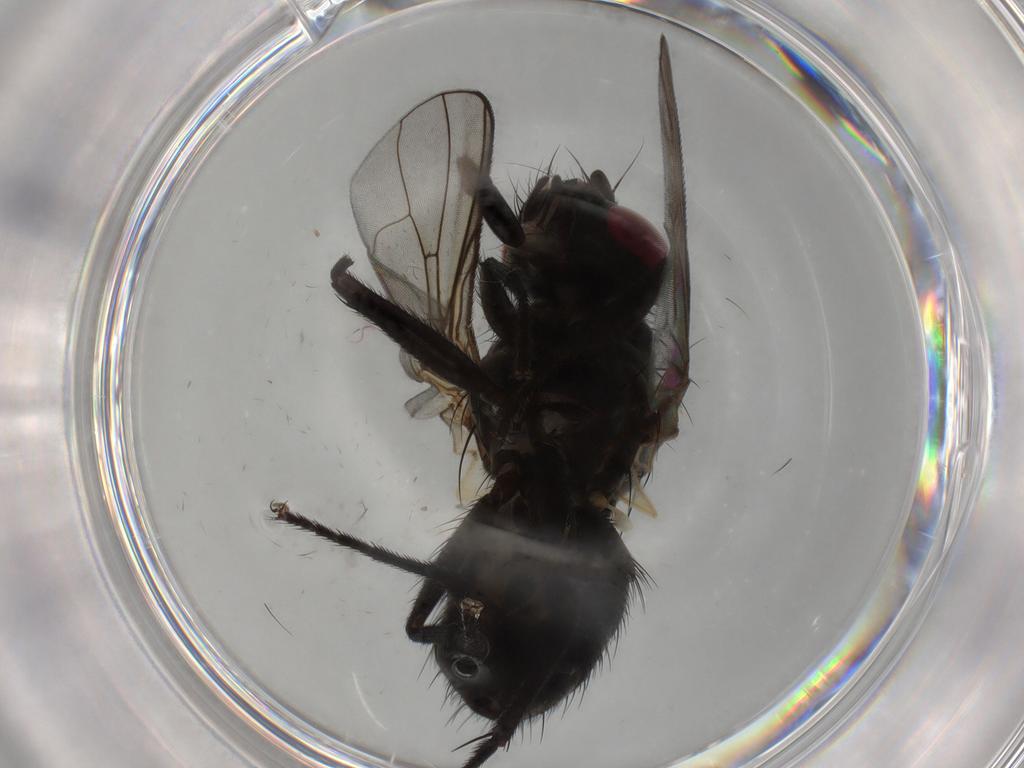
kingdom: Animalia
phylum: Arthropoda
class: Insecta
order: Diptera
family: Muscidae
